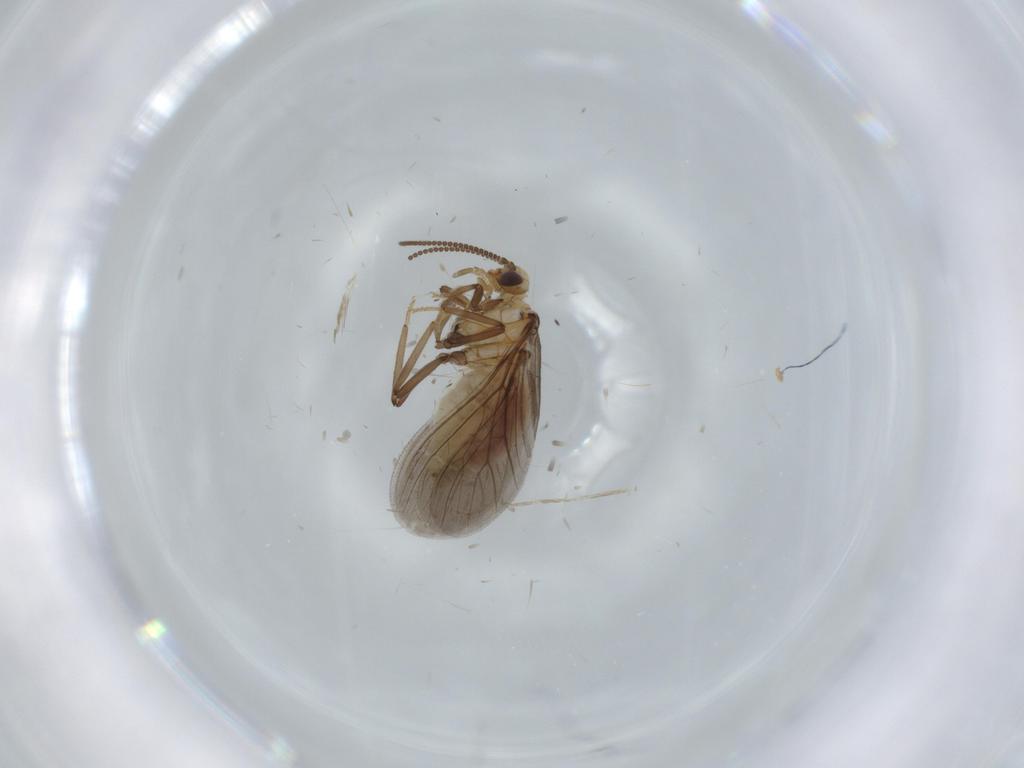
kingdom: Animalia
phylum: Arthropoda
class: Insecta
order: Neuroptera
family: Coniopterygidae
